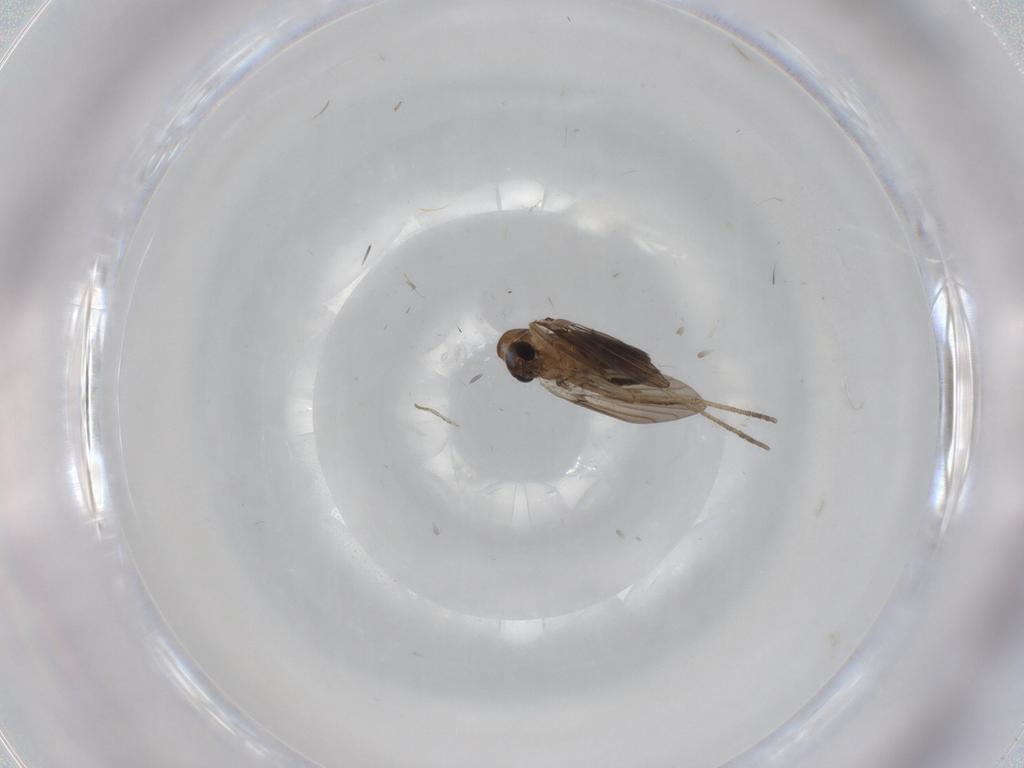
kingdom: Animalia
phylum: Arthropoda
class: Insecta
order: Diptera
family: Psychodidae
